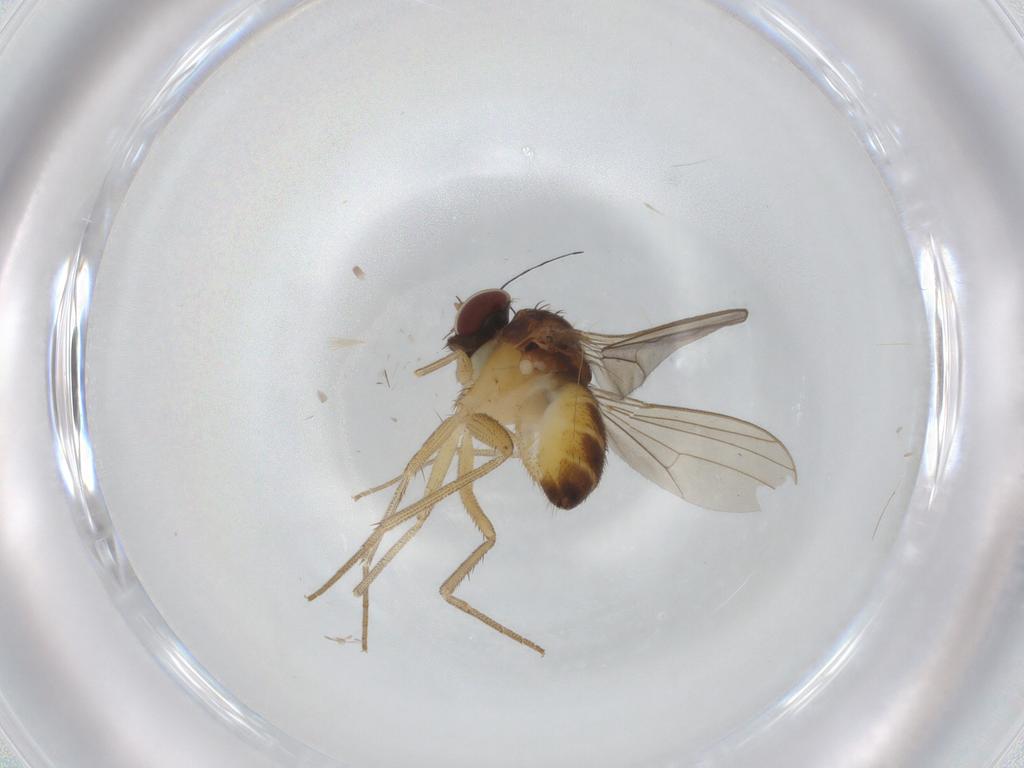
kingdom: Animalia
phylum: Arthropoda
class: Insecta
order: Diptera
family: Dolichopodidae
